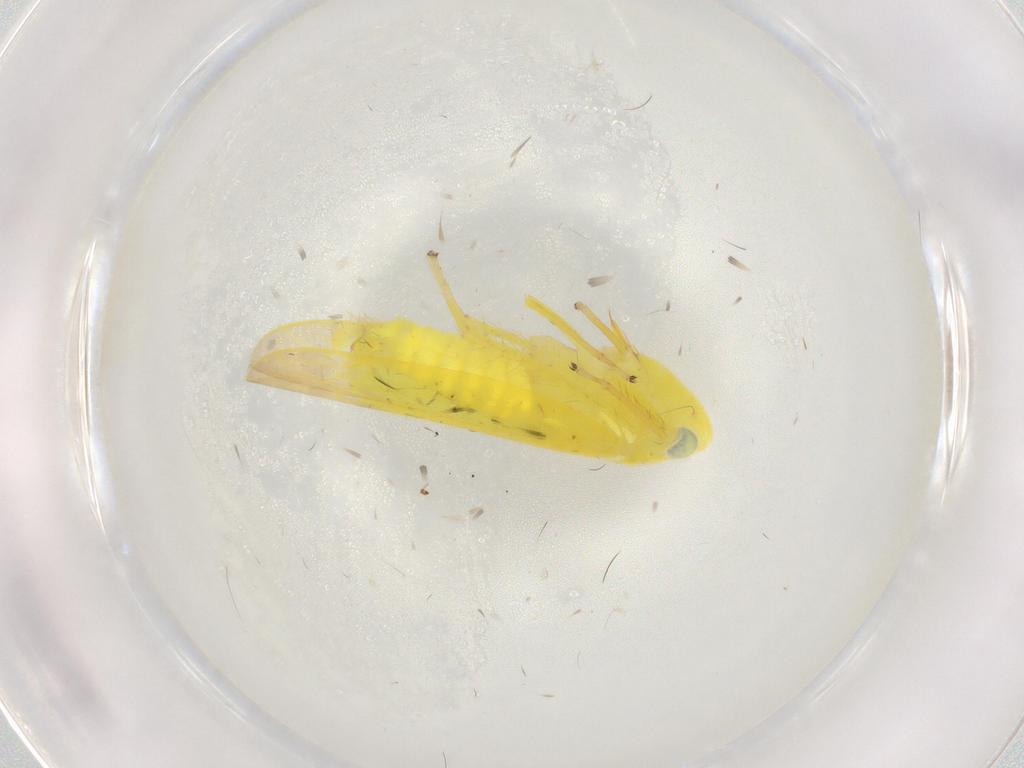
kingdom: Animalia
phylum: Arthropoda
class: Insecta
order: Hemiptera
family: Cicadellidae
